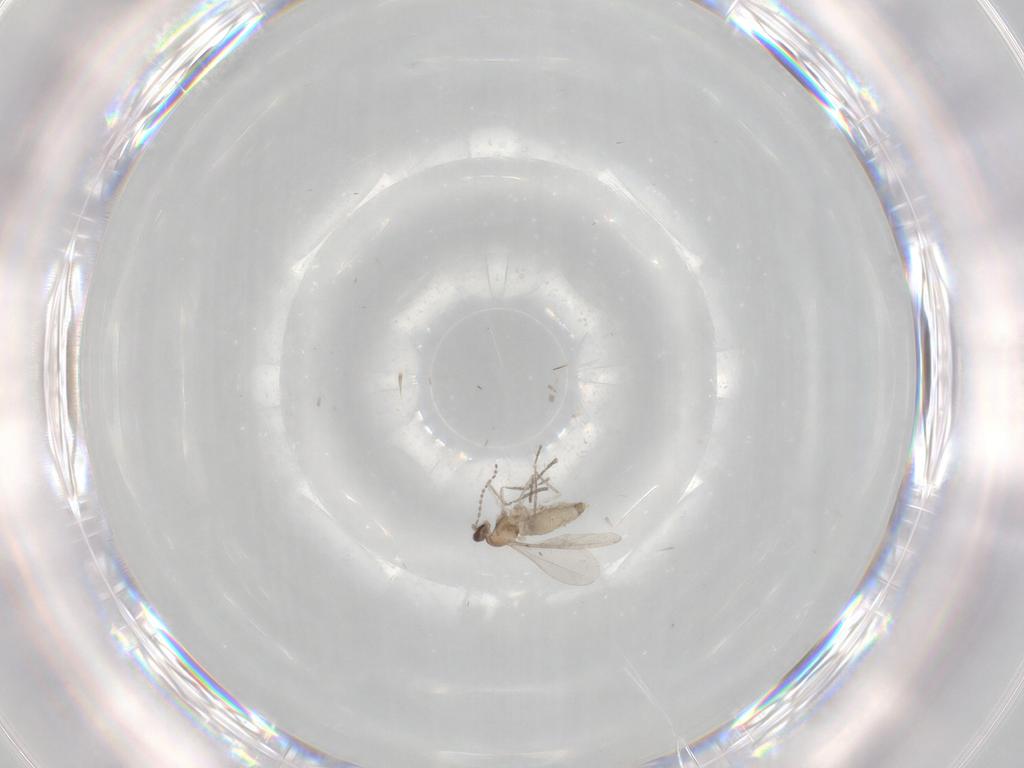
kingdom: Animalia
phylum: Arthropoda
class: Insecta
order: Diptera
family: Cecidomyiidae
